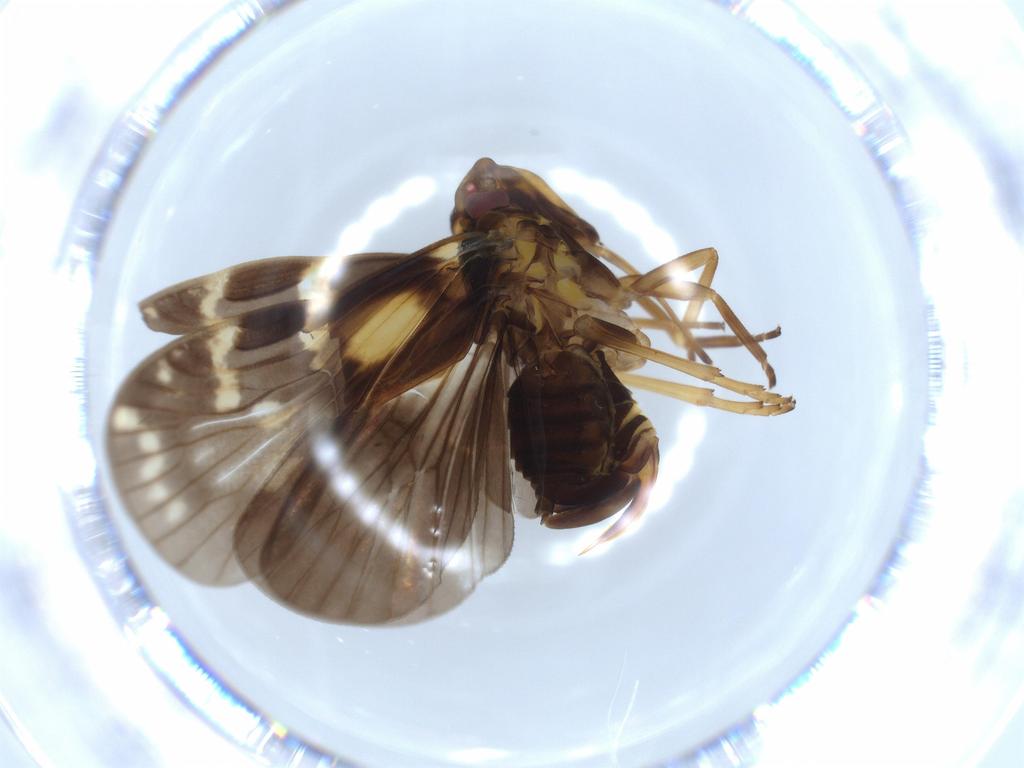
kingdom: Animalia
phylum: Arthropoda
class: Insecta
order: Hemiptera
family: Cixiidae
